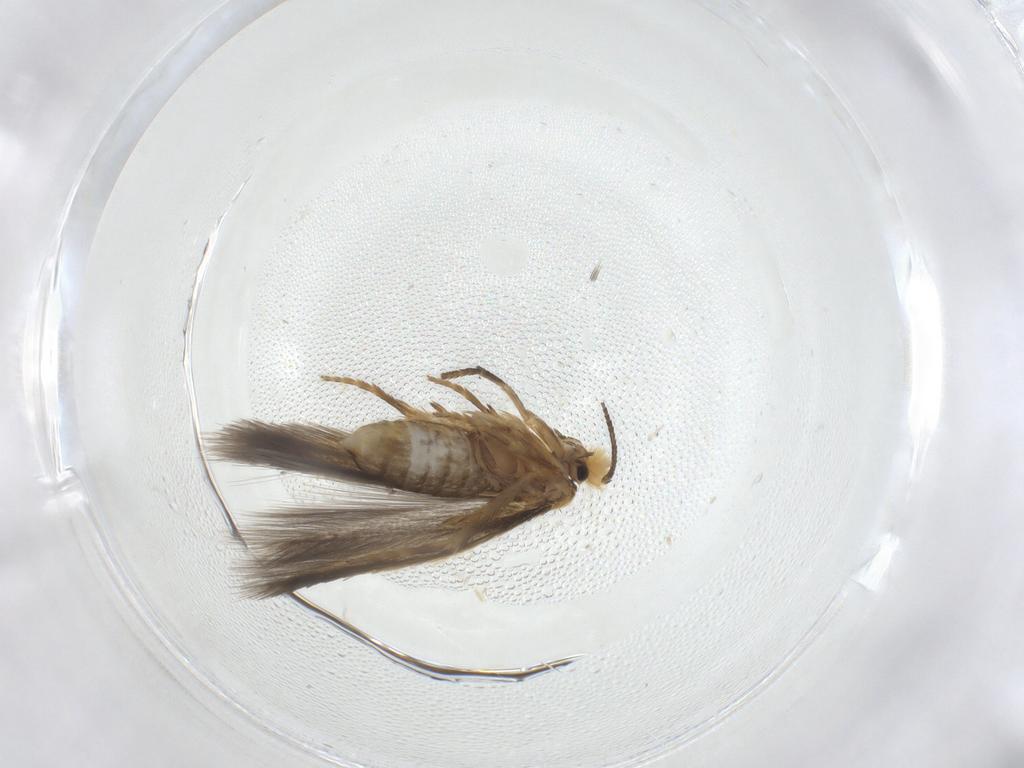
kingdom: Animalia
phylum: Arthropoda
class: Insecta
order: Lepidoptera
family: Nepticulidae
